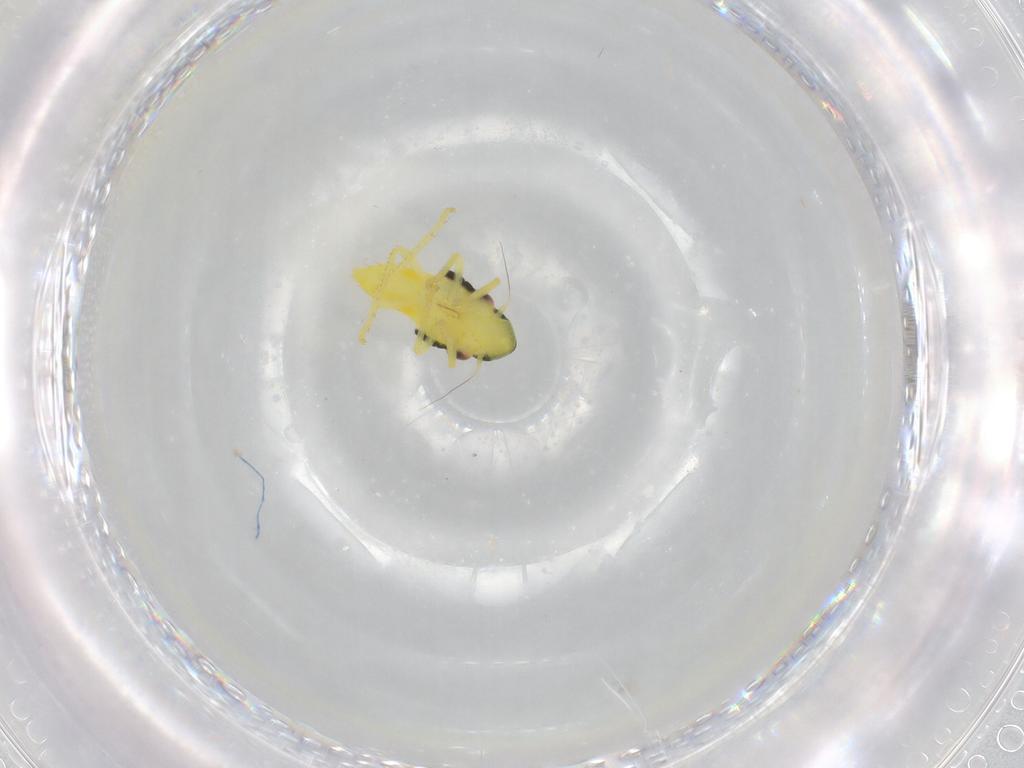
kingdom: Animalia
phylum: Arthropoda
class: Insecta
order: Hemiptera
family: Cicadellidae
